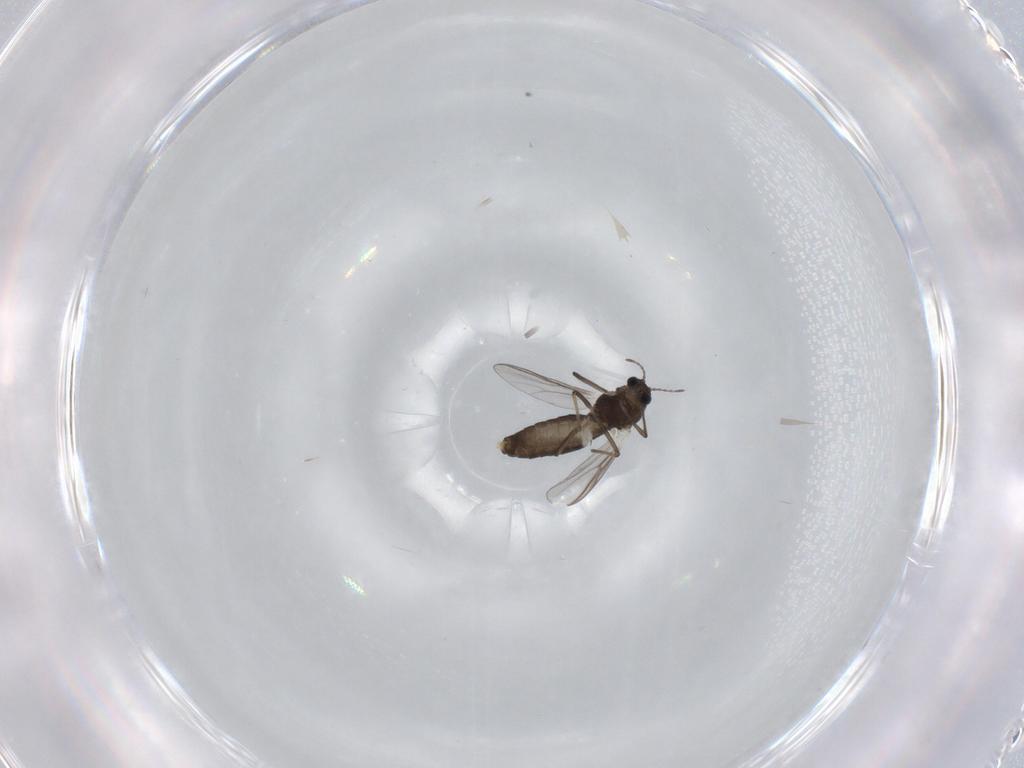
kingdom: Animalia
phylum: Arthropoda
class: Insecta
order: Diptera
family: Chironomidae
